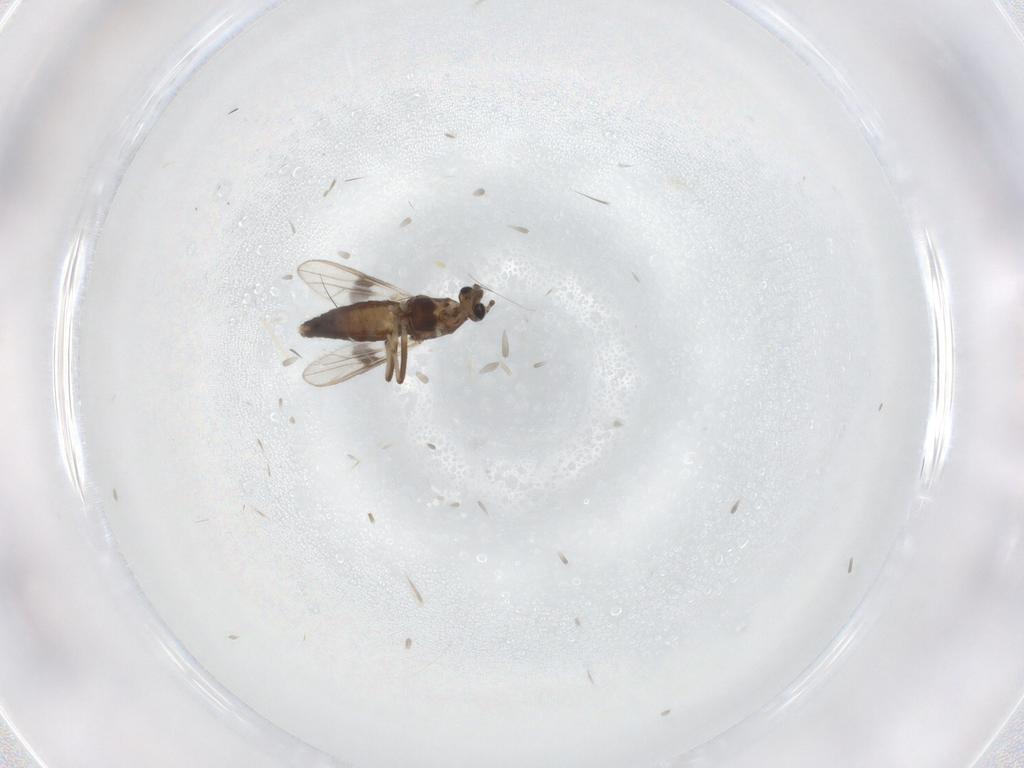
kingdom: Animalia
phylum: Arthropoda
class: Insecta
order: Diptera
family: Chironomidae
